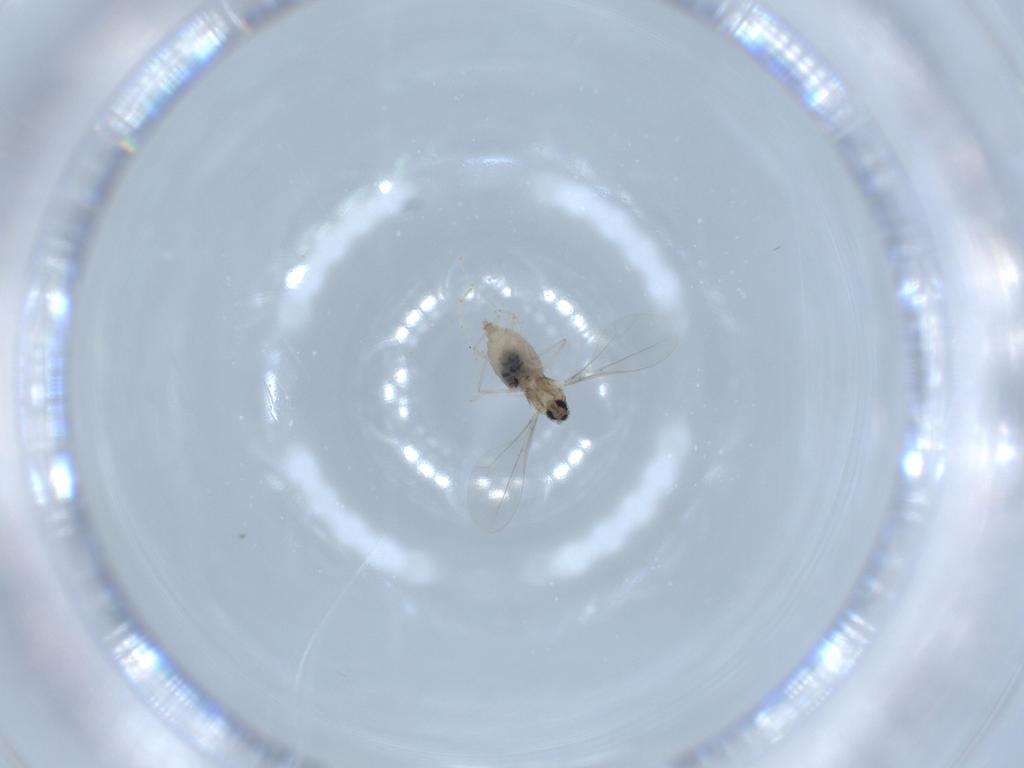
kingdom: Animalia
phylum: Arthropoda
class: Insecta
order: Diptera
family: Cecidomyiidae
